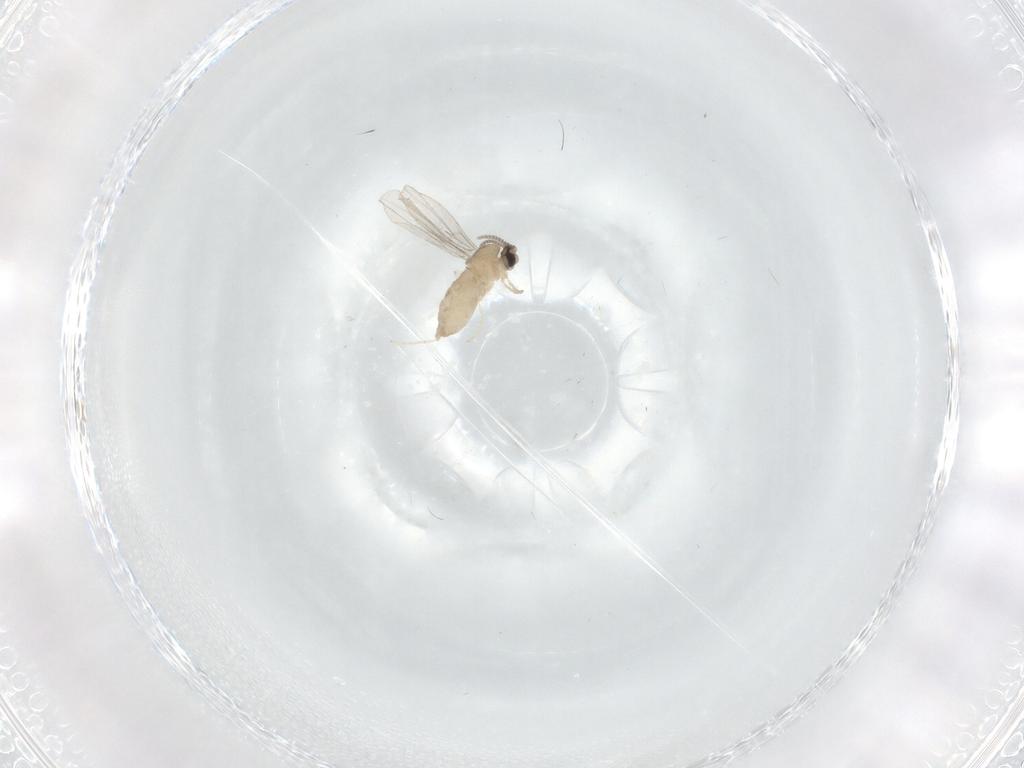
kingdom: Animalia
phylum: Arthropoda
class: Insecta
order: Diptera
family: Cecidomyiidae
